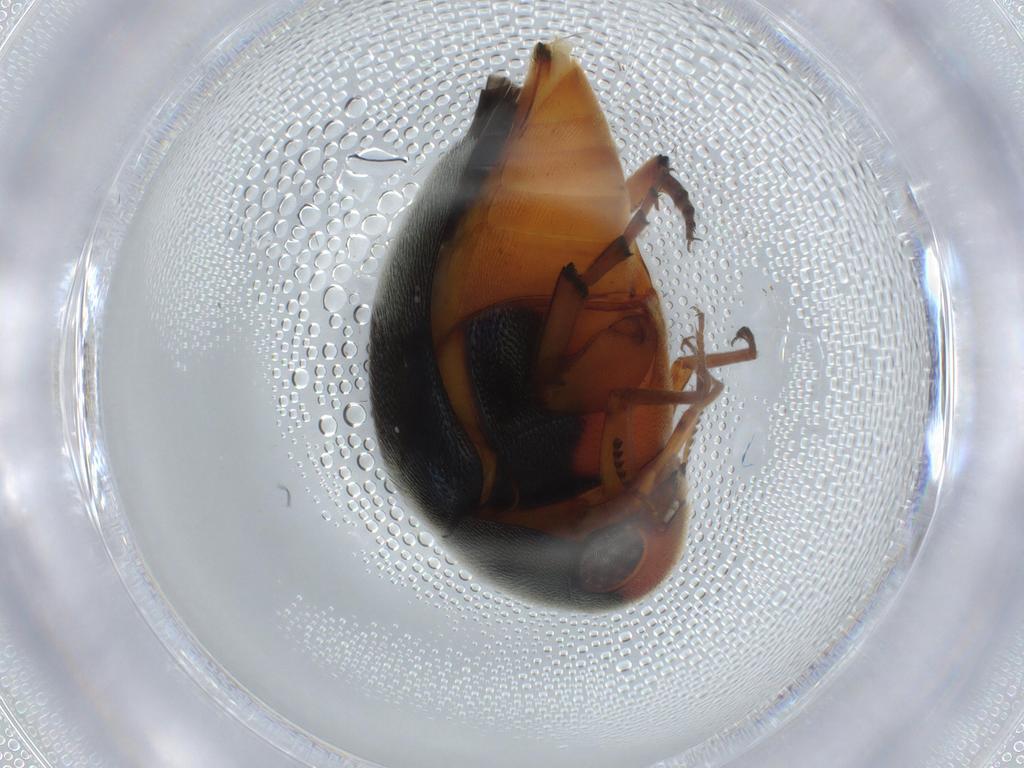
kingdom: Animalia
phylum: Arthropoda
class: Insecta
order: Coleoptera
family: Mordellidae
